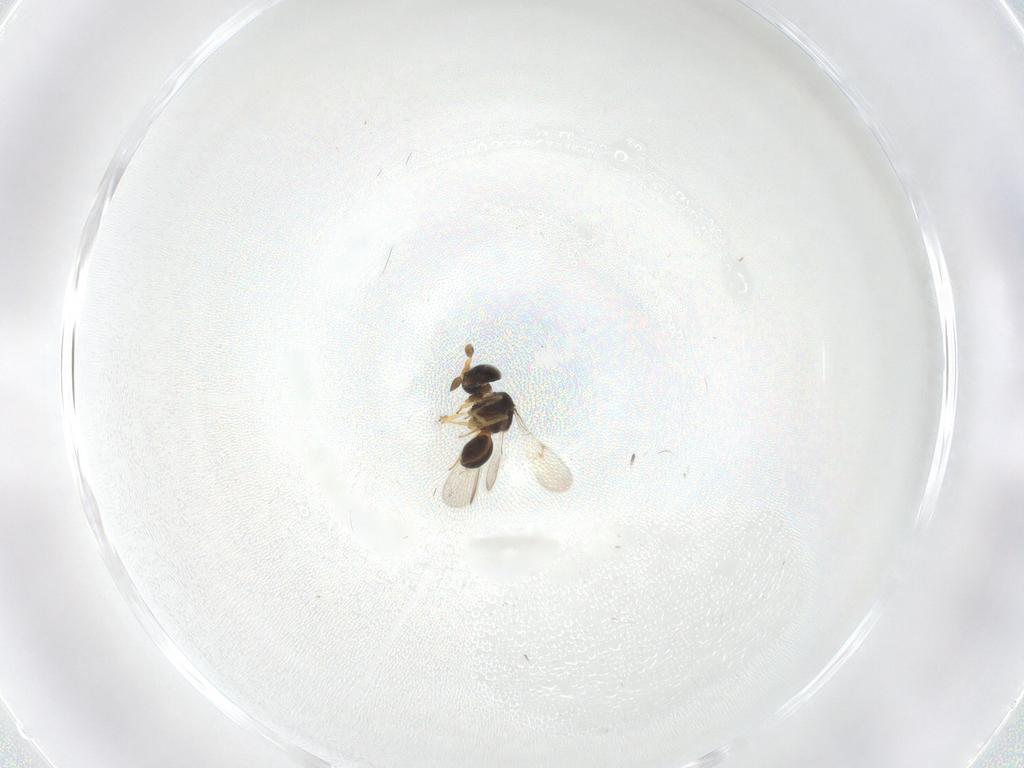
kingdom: Animalia
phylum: Arthropoda
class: Insecta
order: Hymenoptera
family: Scelionidae
